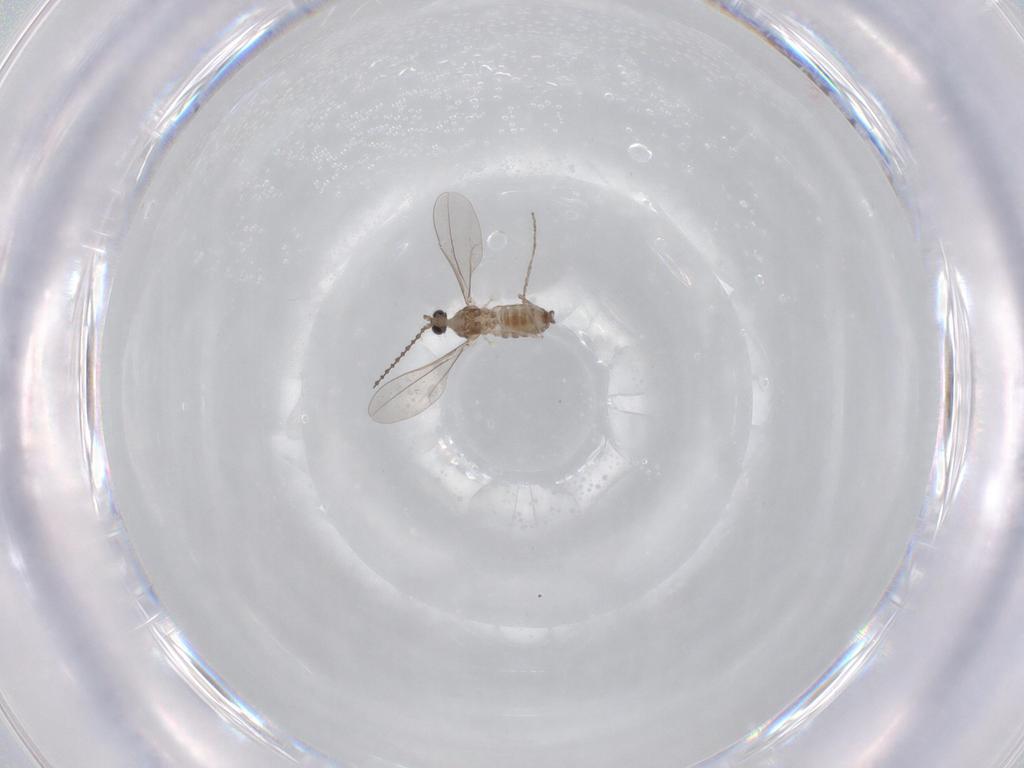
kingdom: Animalia
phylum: Arthropoda
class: Insecta
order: Diptera
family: Cecidomyiidae
